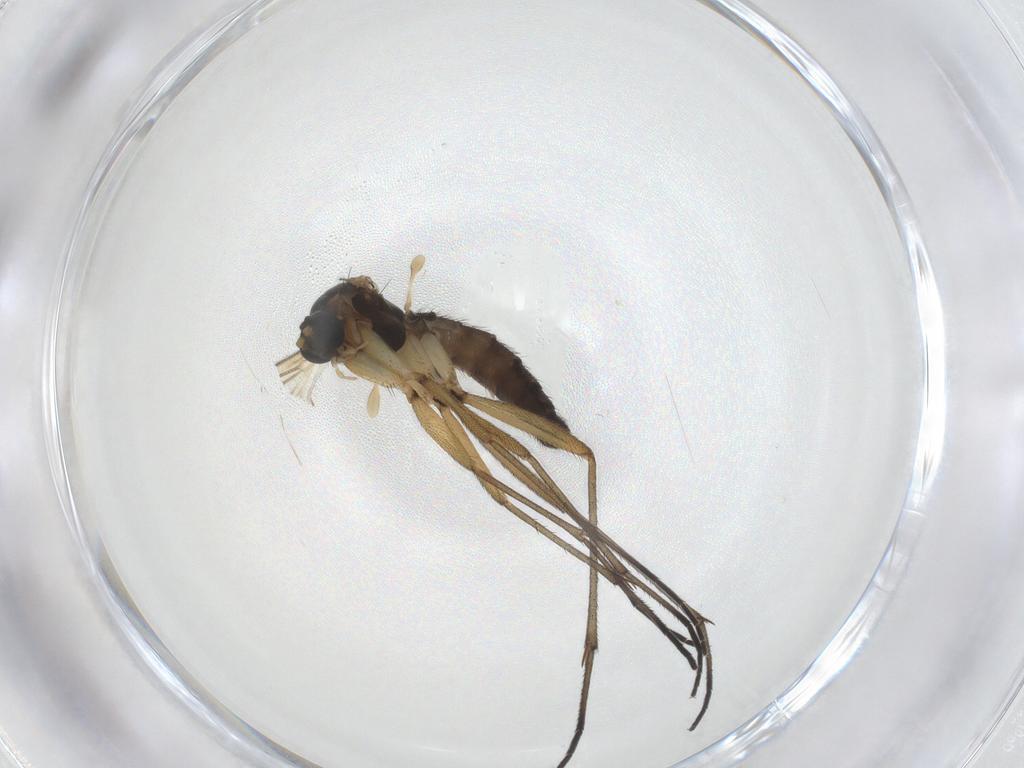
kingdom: Animalia
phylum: Arthropoda
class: Insecta
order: Diptera
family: Sciaridae
